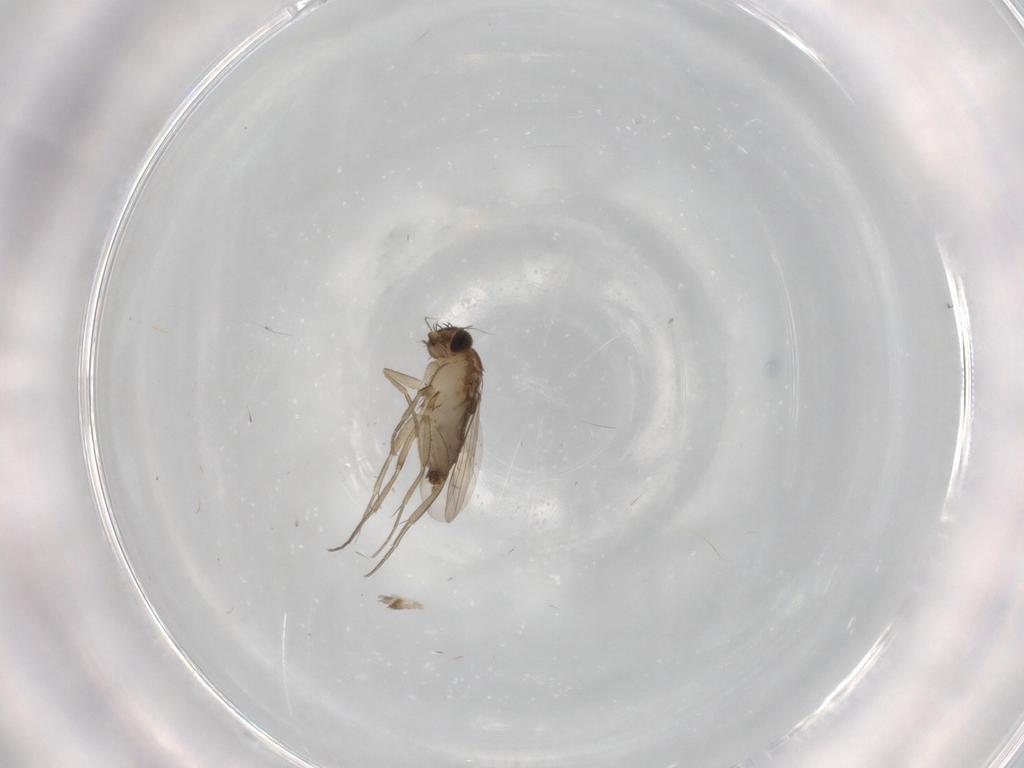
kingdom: Animalia
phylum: Arthropoda
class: Insecta
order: Diptera
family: Phoridae
